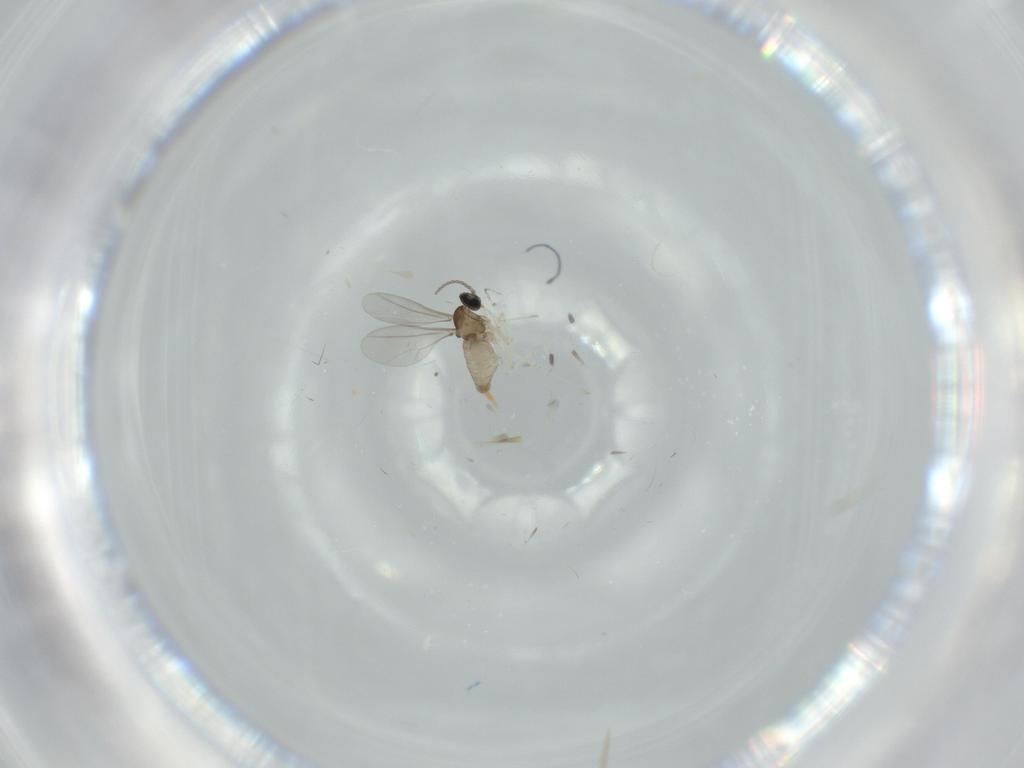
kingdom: Animalia
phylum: Arthropoda
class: Insecta
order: Diptera
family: Cecidomyiidae
